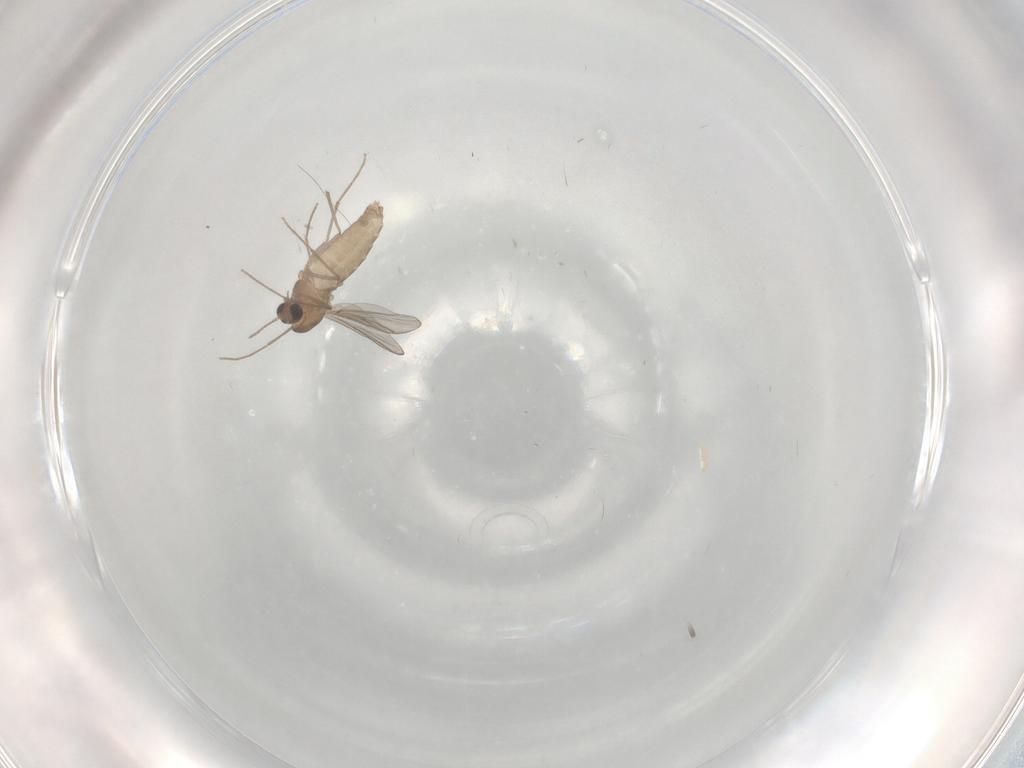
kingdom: Animalia
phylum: Arthropoda
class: Insecta
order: Diptera
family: Chironomidae
